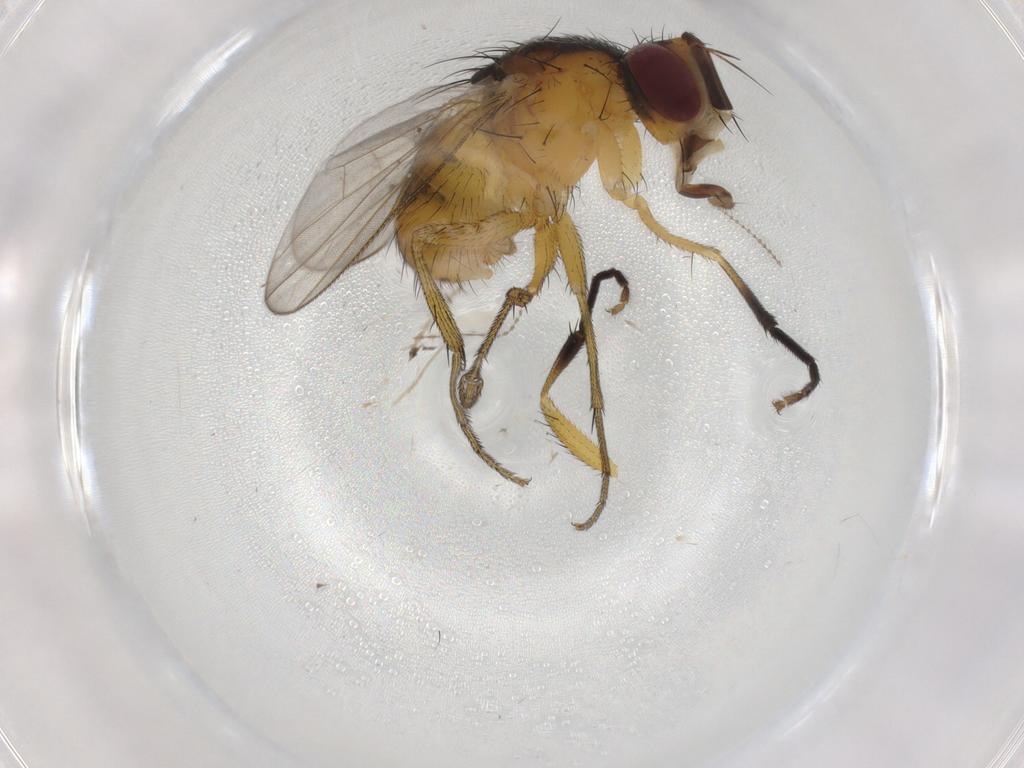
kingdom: Animalia
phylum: Arthropoda
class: Insecta
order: Diptera
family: Muscidae
